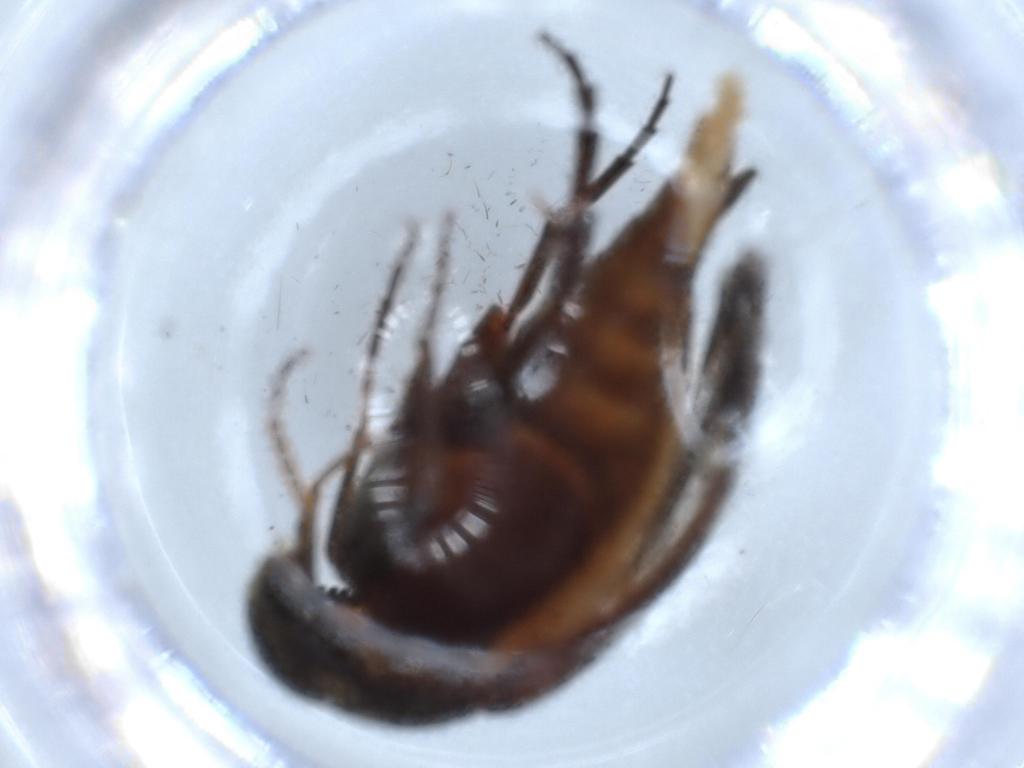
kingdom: Animalia
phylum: Arthropoda
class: Insecta
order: Coleoptera
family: Mordellidae
